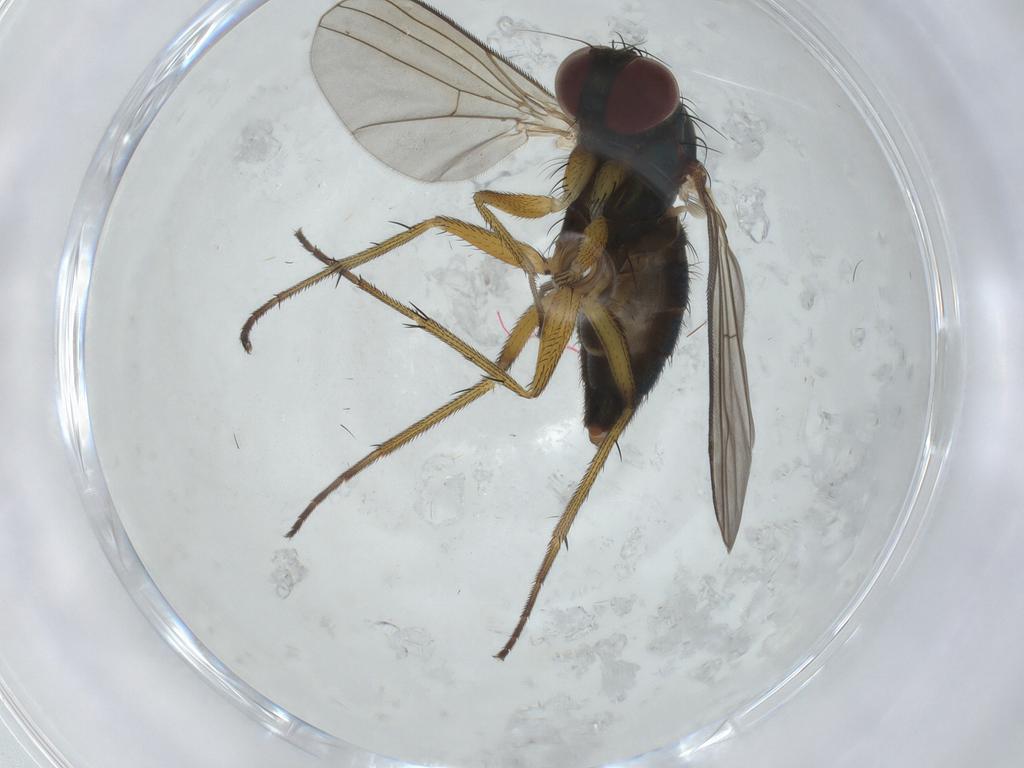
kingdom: Animalia
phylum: Arthropoda
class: Insecta
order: Diptera
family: Dolichopodidae
